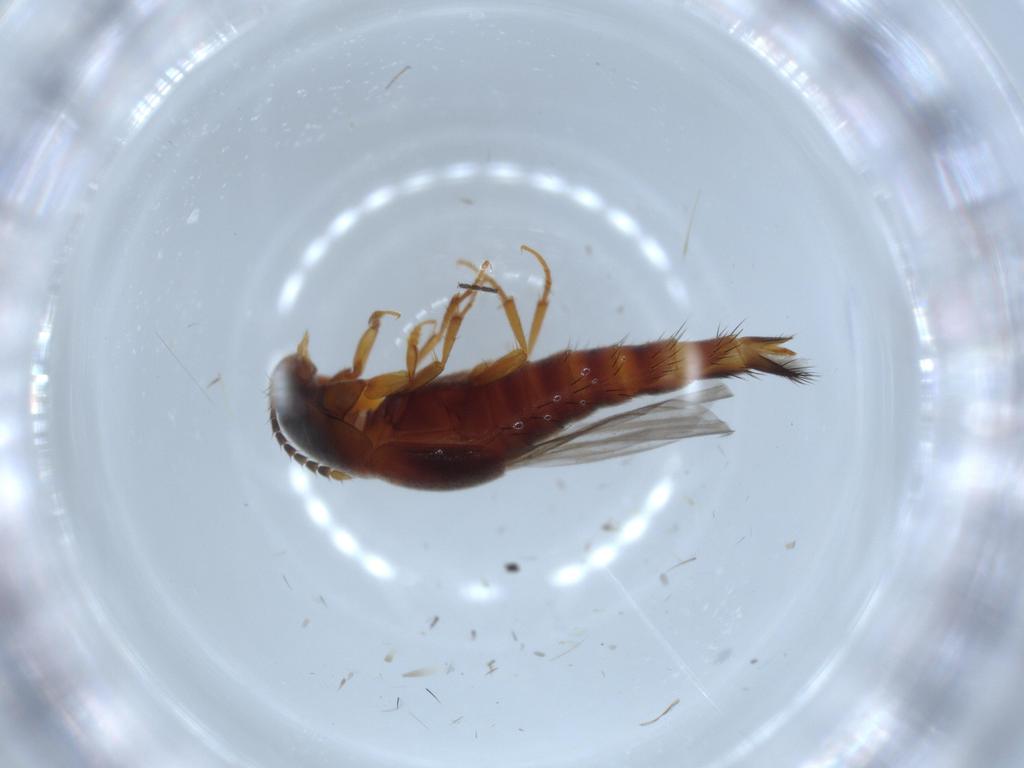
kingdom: Animalia
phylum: Arthropoda
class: Insecta
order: Coleoptera
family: Staphylinidae
